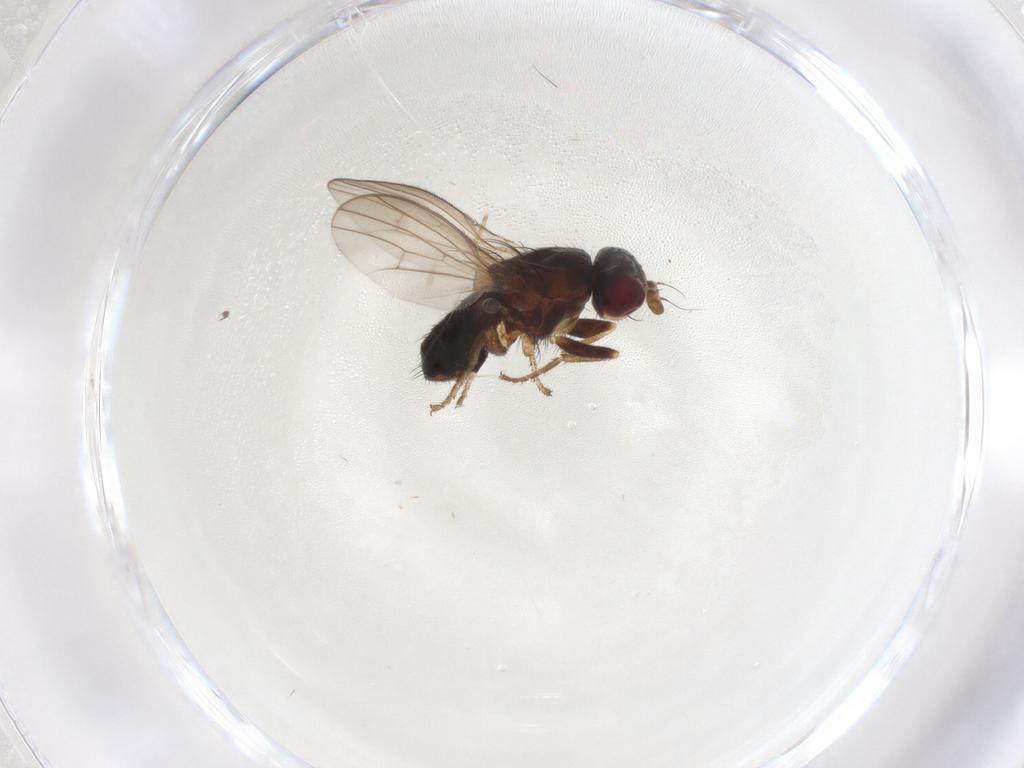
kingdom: Animalia
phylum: Arthropoda
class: Insecta
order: Diptera
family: Heleomyzidae
